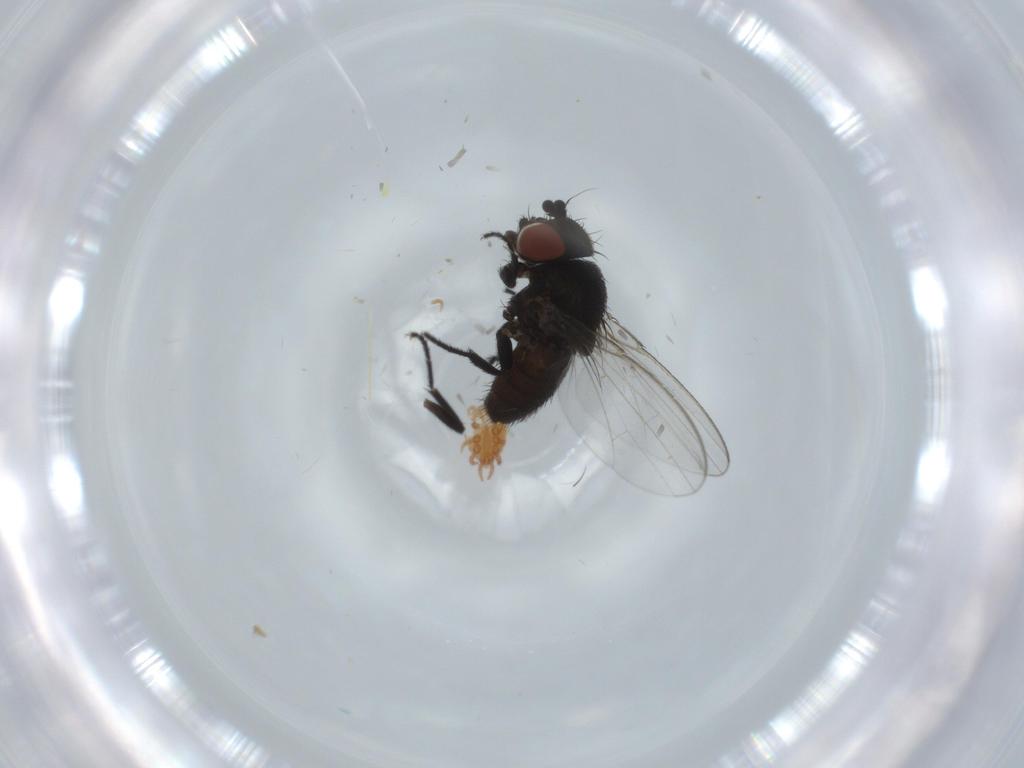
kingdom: Animalia
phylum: Arthropoda
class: Insecta
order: Diptera
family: Milichiidae
